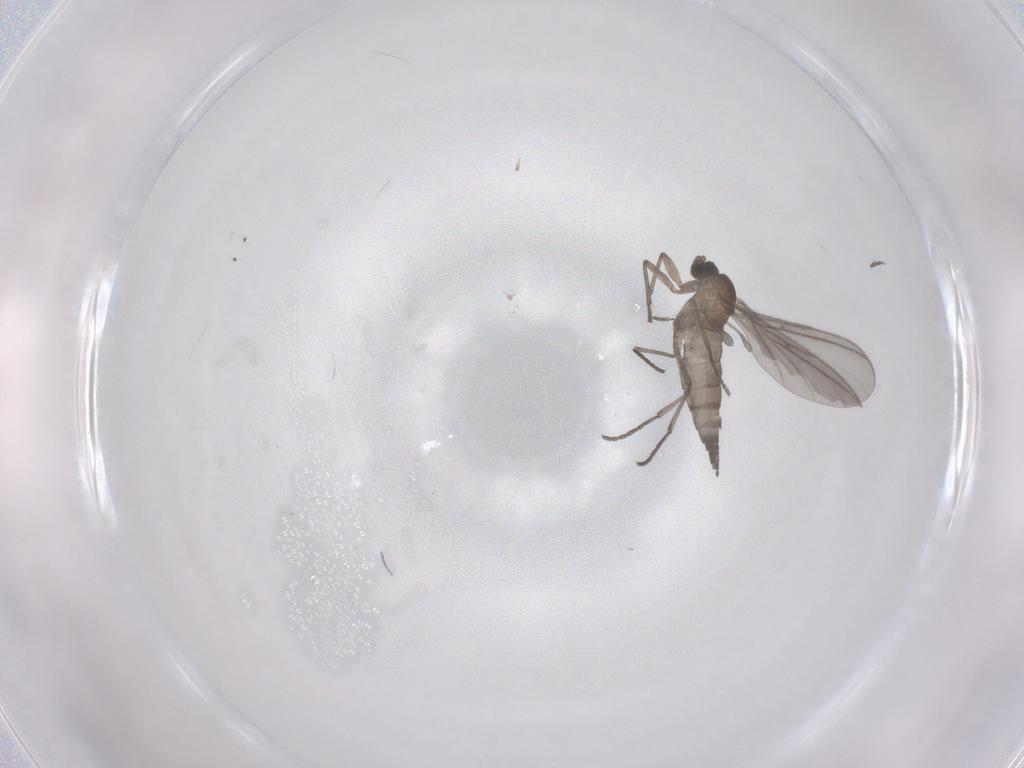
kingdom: Animalia
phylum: Arthropoda
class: Insecta
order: Diptera
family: Sciaridae
